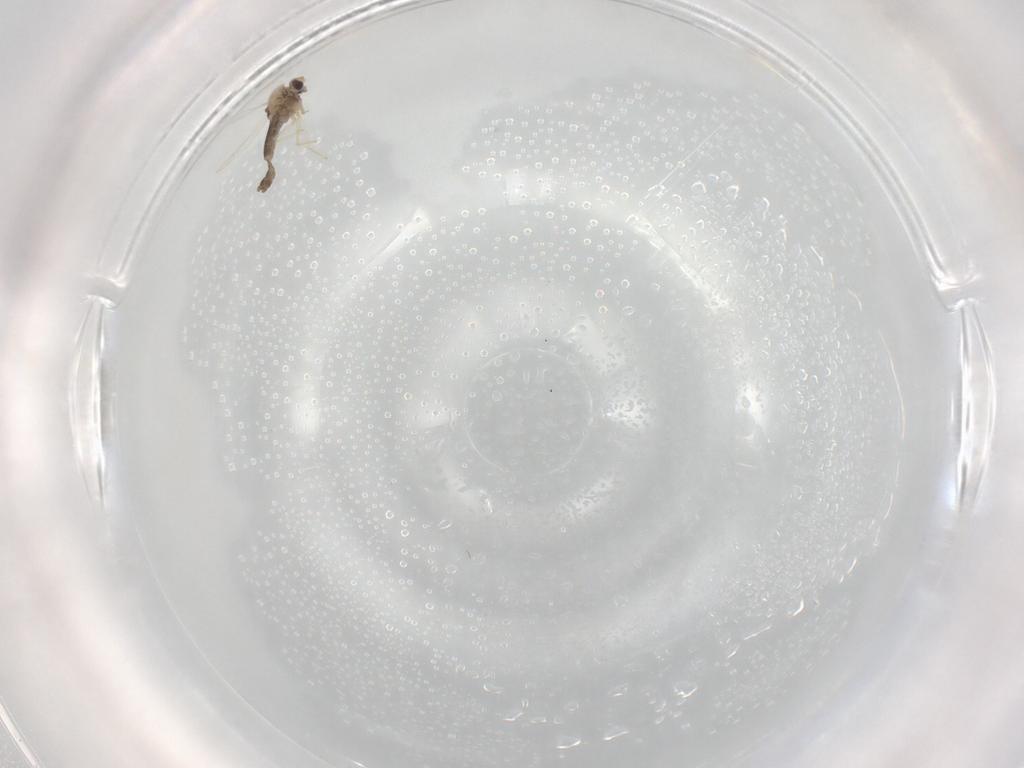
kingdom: Animalia
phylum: Arthropoda
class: Insecta
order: Diptera
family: Chironomidae
